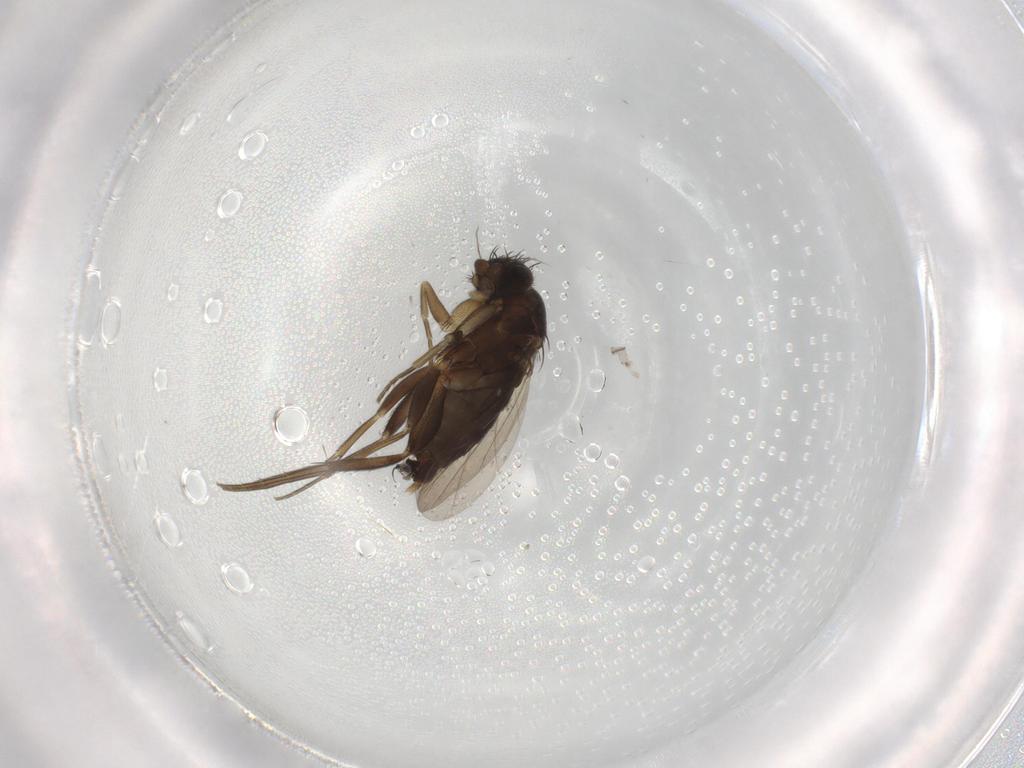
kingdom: Animalia
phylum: Arthropoda
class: Insecta
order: Diptera
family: Phoridae
